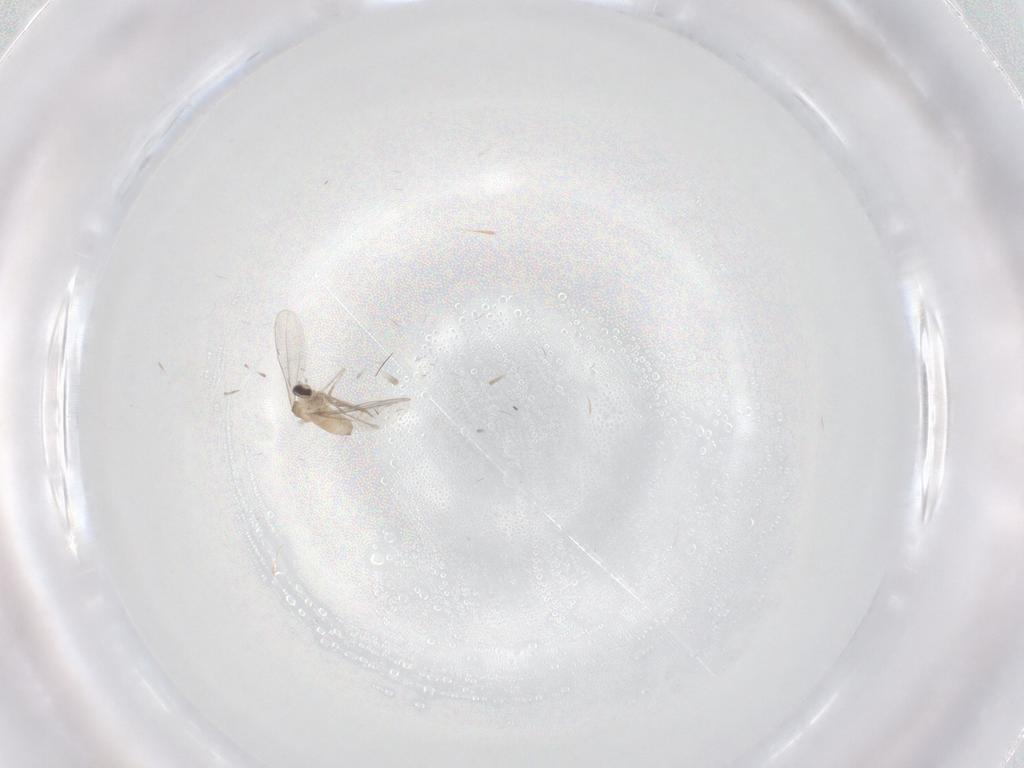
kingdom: Animalia
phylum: Arthropoda
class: Insecta
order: Diptera
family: Cecidomyiidae
